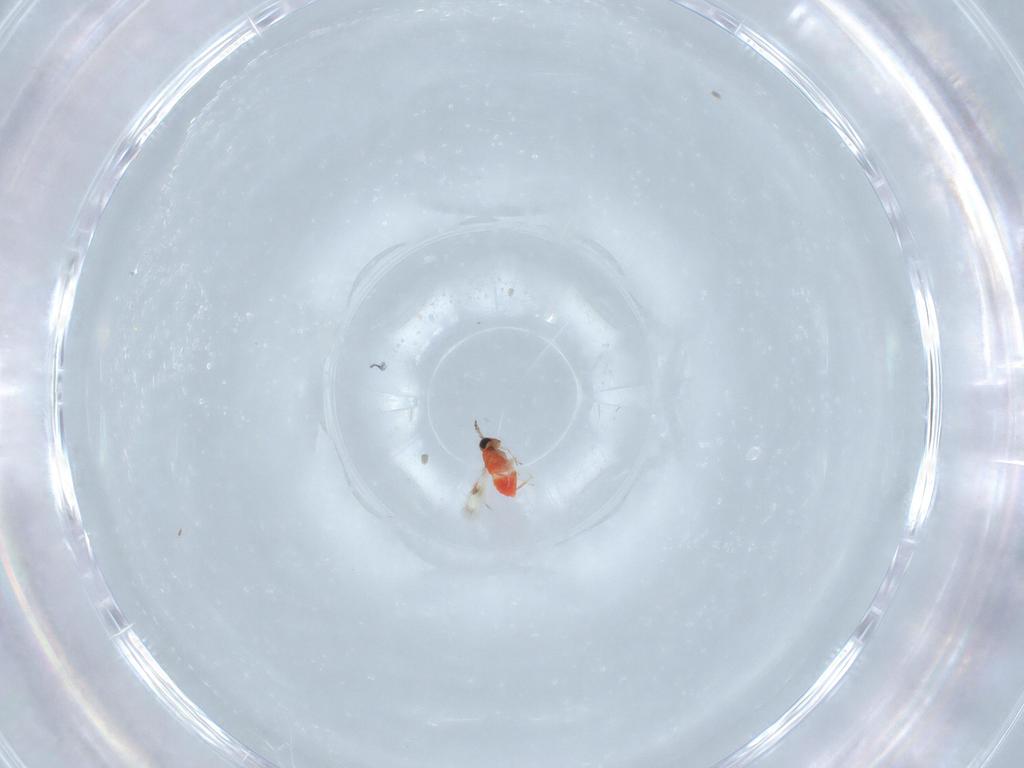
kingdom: Animalia
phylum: Arthropoda
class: Insecta
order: Hymenoptera
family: Trichogrammatidae
